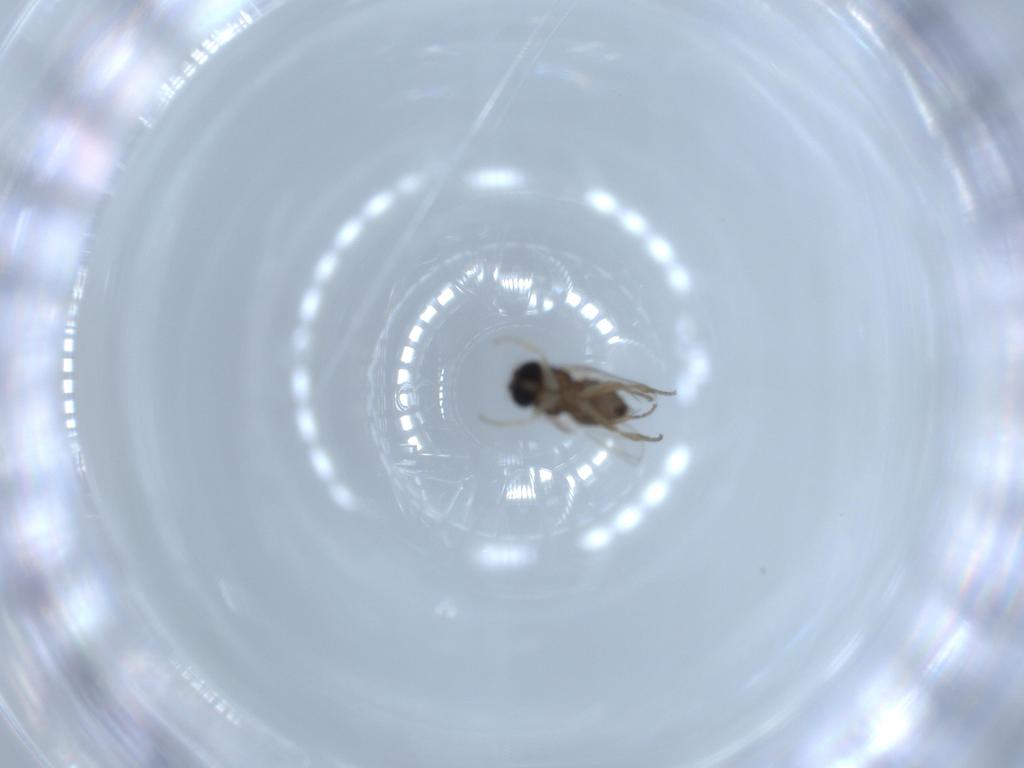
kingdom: Animalia
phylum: Arthropoda
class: Insecta
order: Diptera
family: Phoridae
